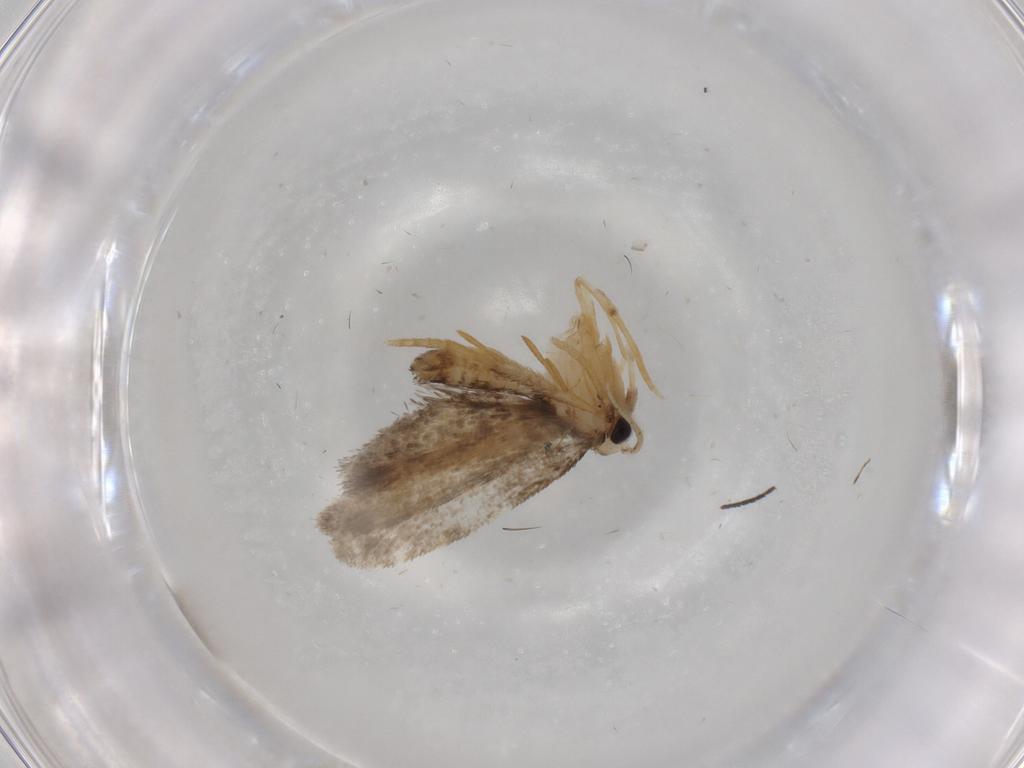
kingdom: Animalia
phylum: Arthropoda
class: Insecta
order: Lepidoptera
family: Psychidae
